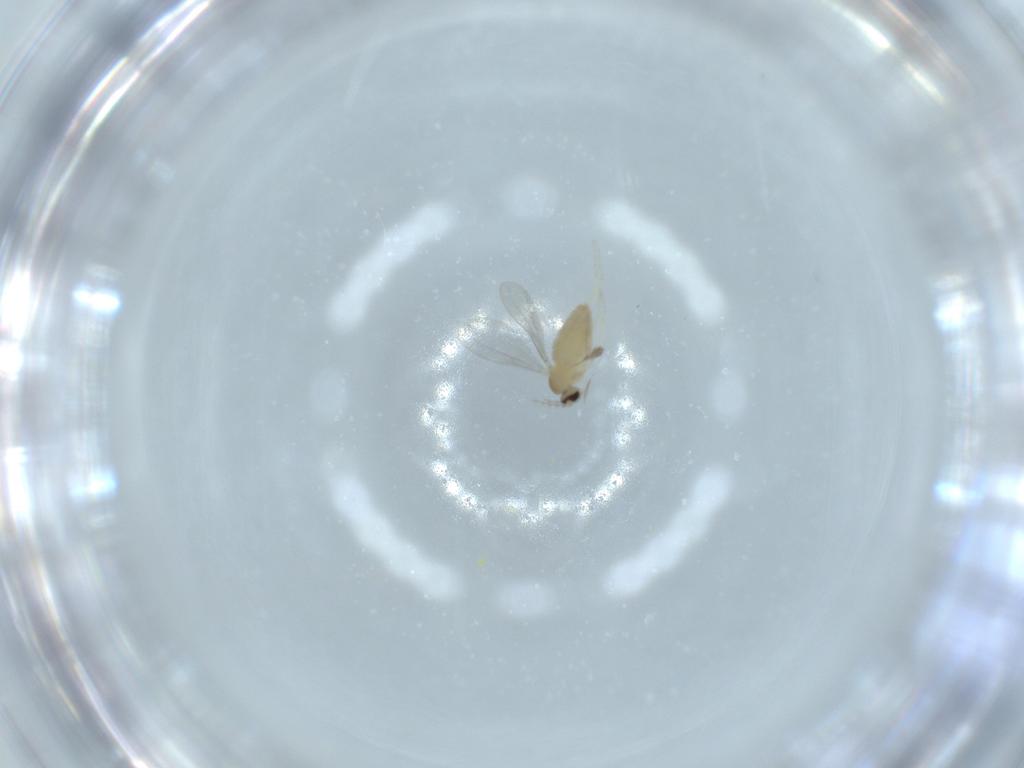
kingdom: Animalia
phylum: Arthropoda
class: Insecta
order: Diptera
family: Cecidomyiidae
